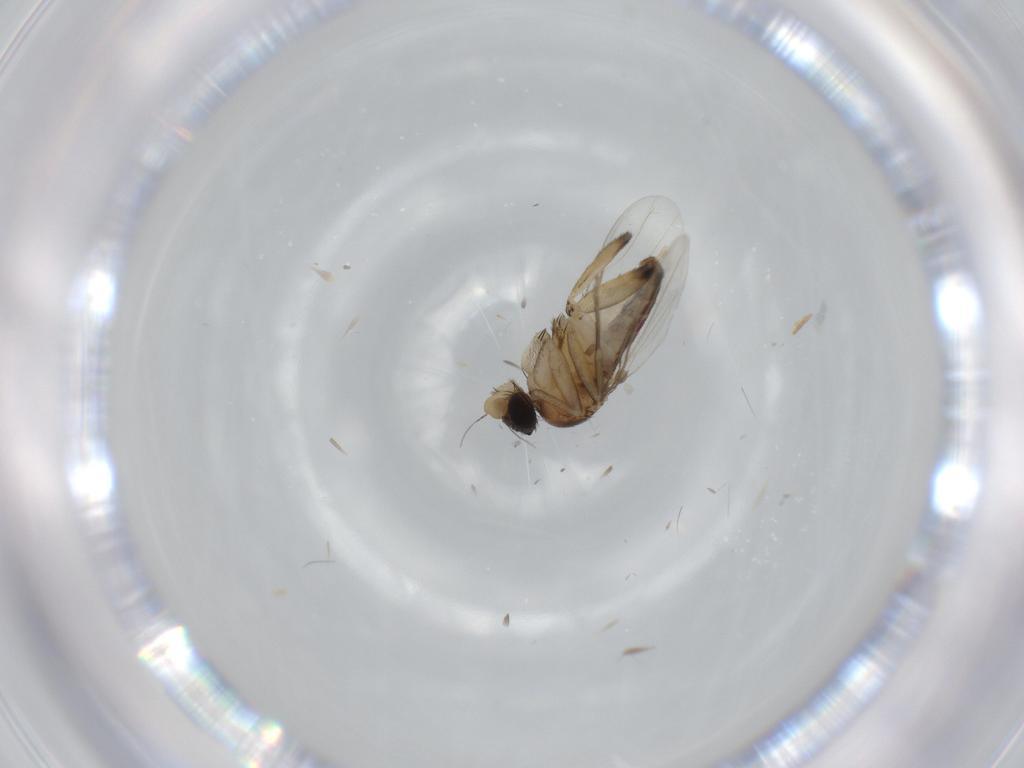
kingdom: Animalia
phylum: Arthropoda
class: Insecta
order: Diptera
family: Phoridae
